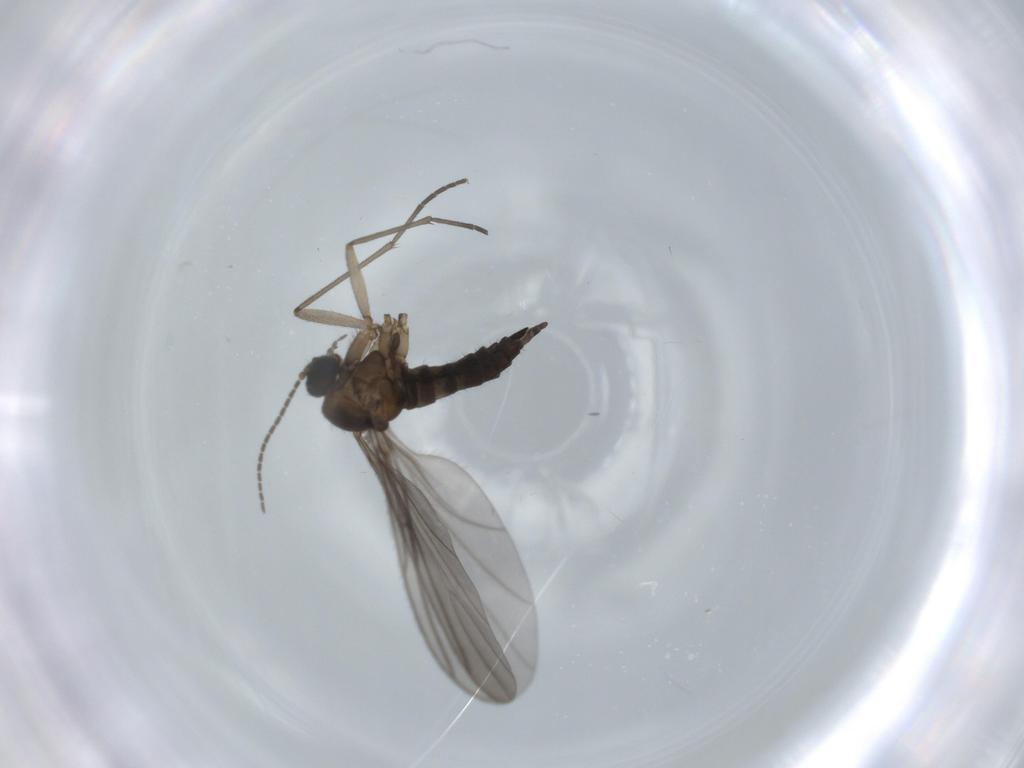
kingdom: Animalia
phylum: Arthropoda
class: Insecta
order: Diptera
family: Sciaridae
